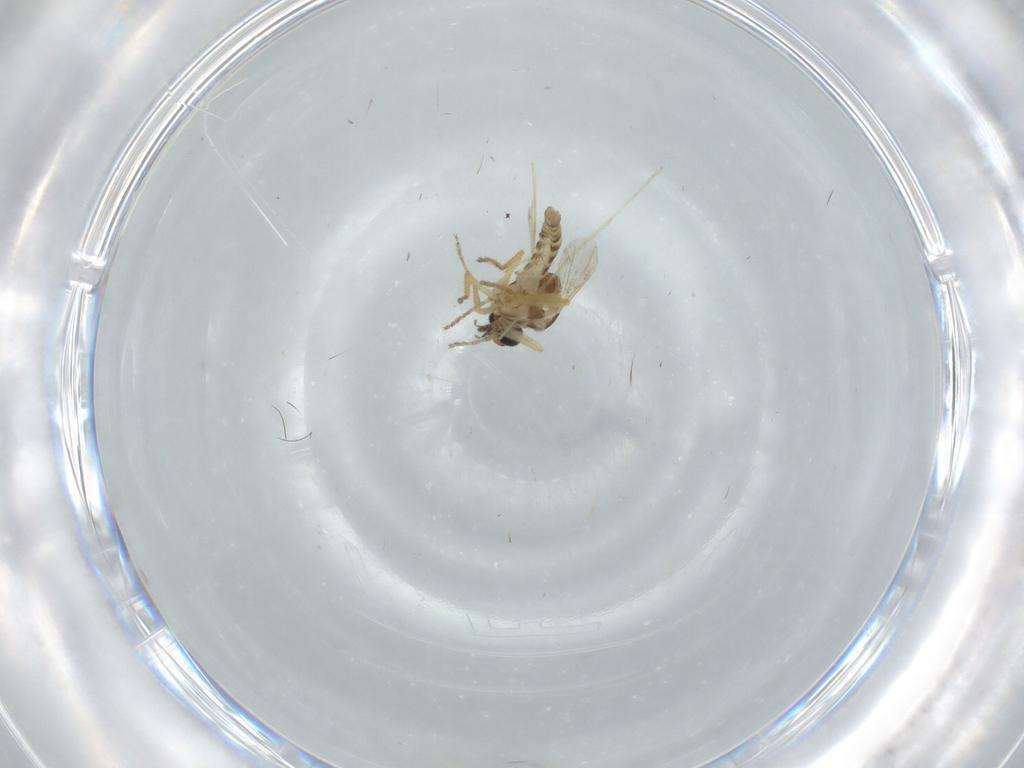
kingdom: Animalia
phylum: Arthropoda
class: Insecta
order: Diptera
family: Ceratopogonidae
